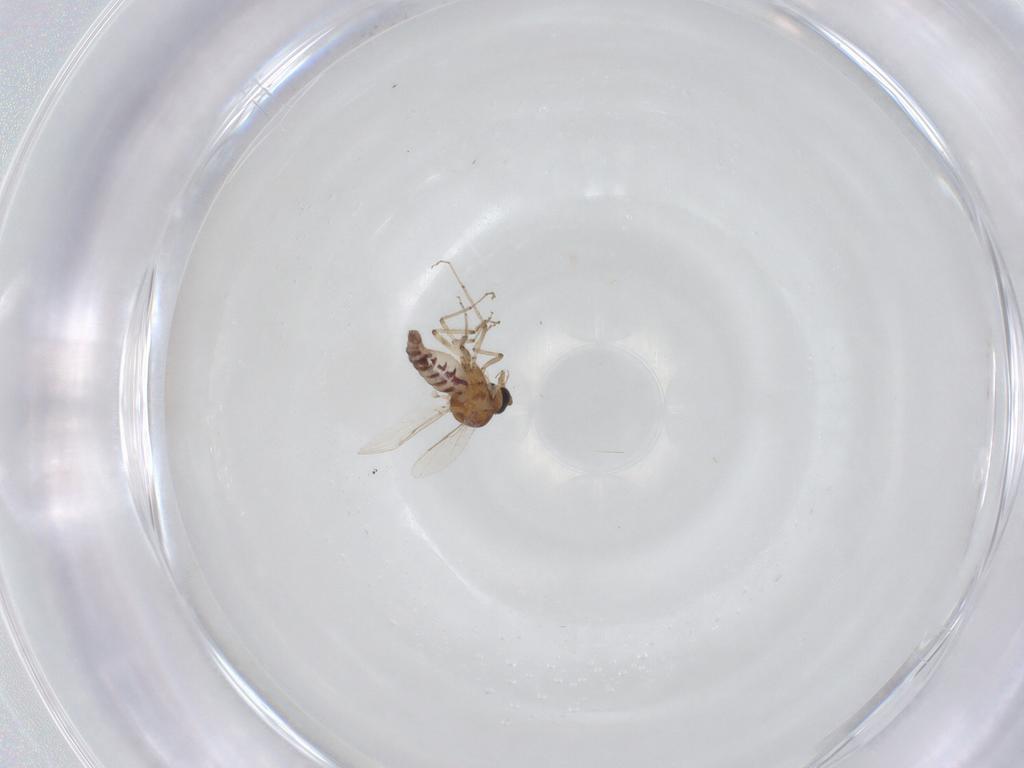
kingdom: Animalia
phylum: Arthropoda
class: Insecta
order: Diptera
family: Ceratopogonidae
